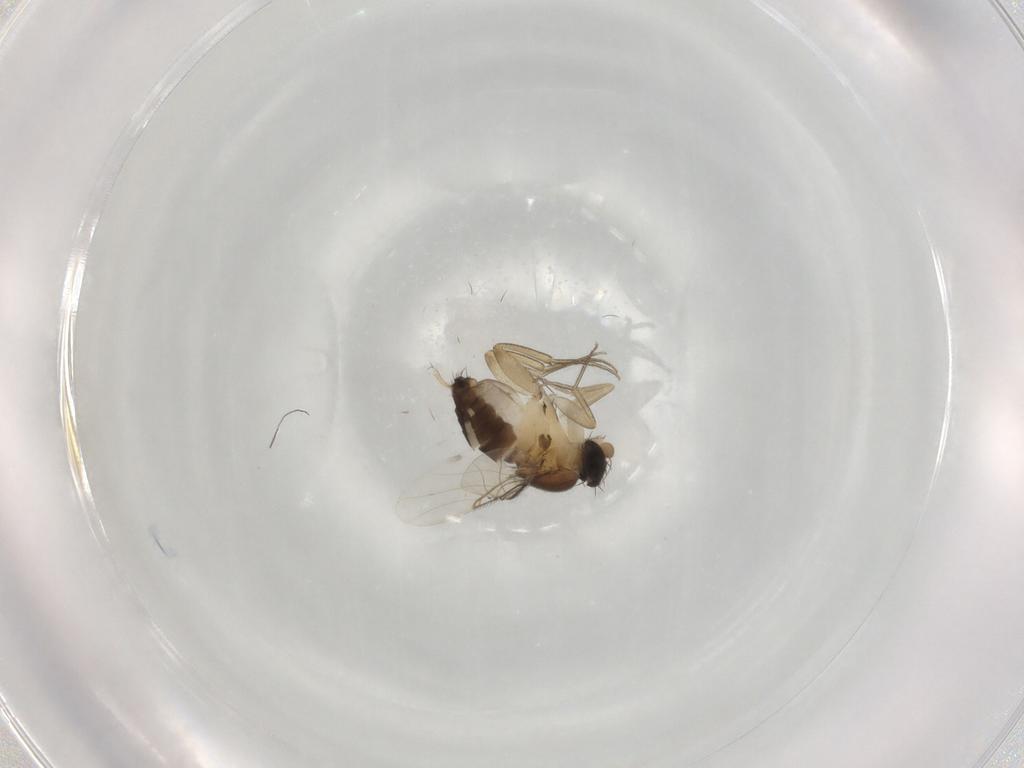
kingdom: Animalia
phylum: Arthropoda
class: Insecta
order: Diptera
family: Phoridae
